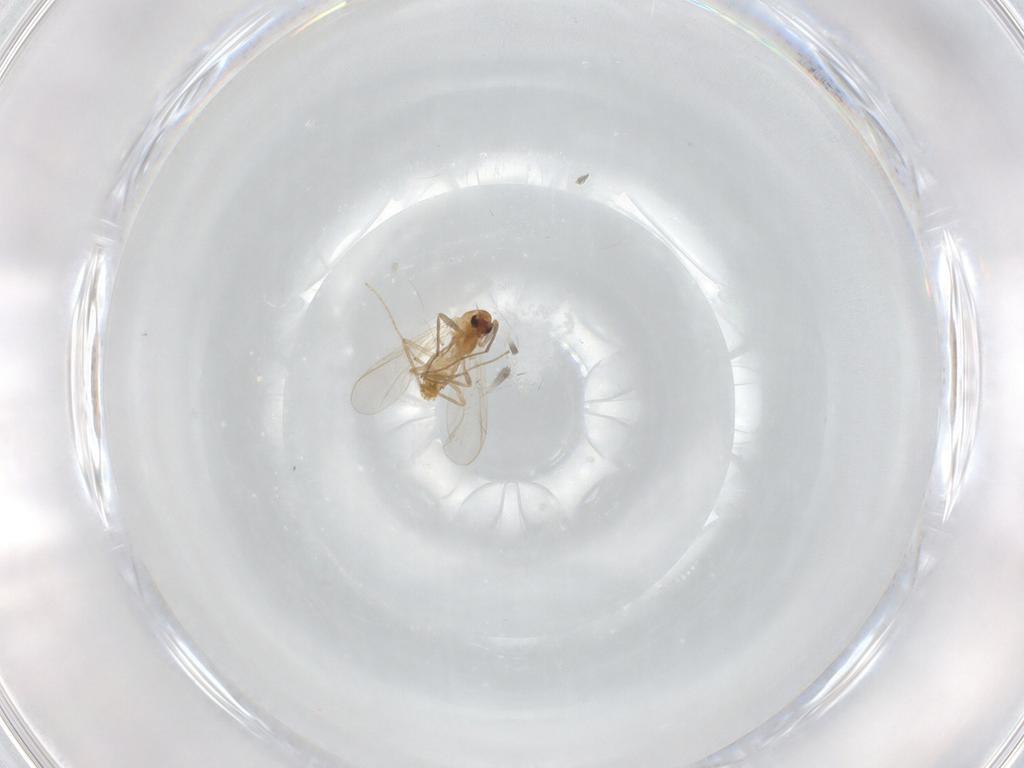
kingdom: Animalia
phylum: Arthropoda
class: Insecta
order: Diptera
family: Chironomidae
